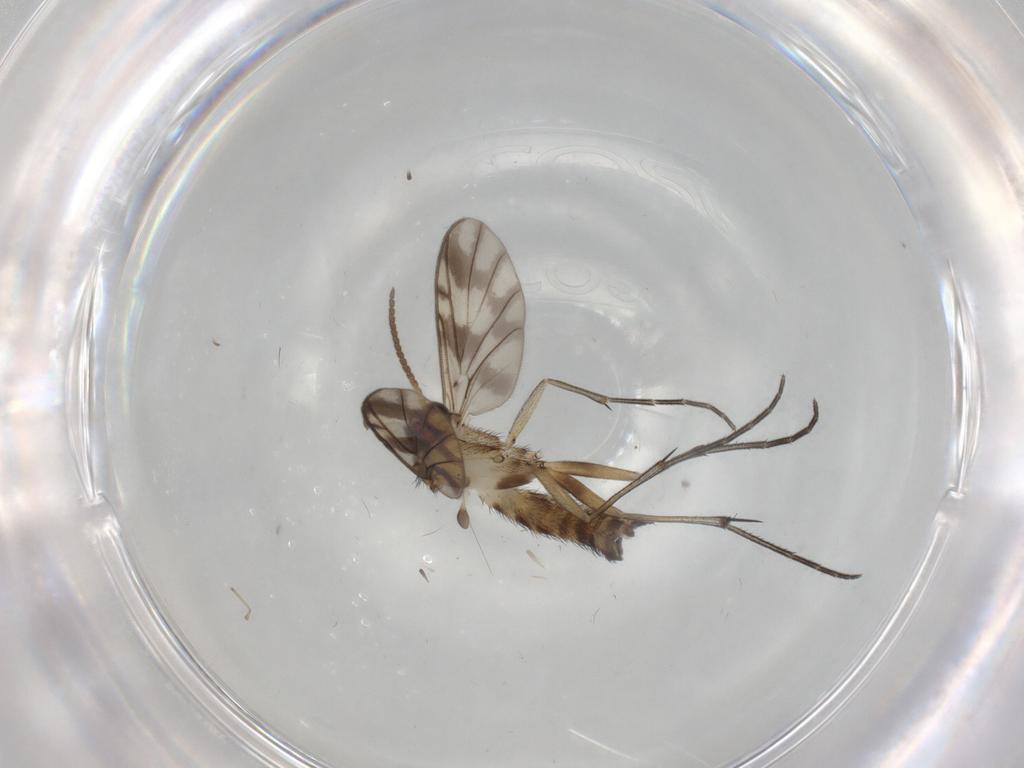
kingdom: Animalia
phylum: Arthropoda
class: Insecta
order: Diptera
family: Keroplatidae
